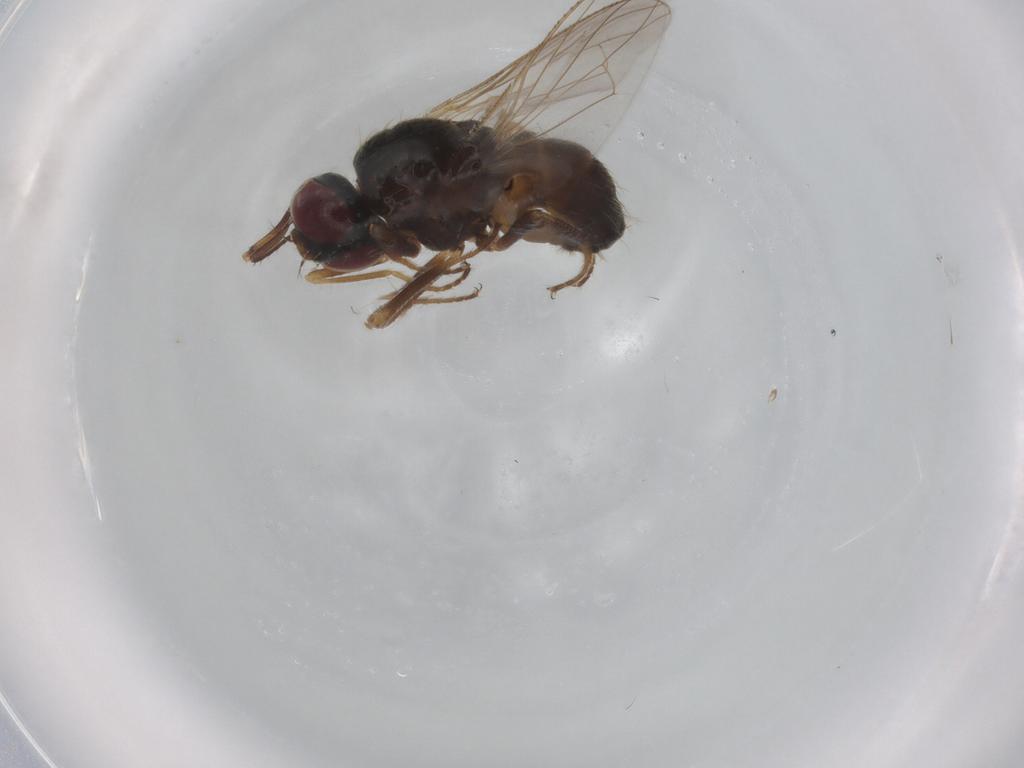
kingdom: Animalia
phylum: Arthropoda
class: Insecta
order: Diptera
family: Muscidae
